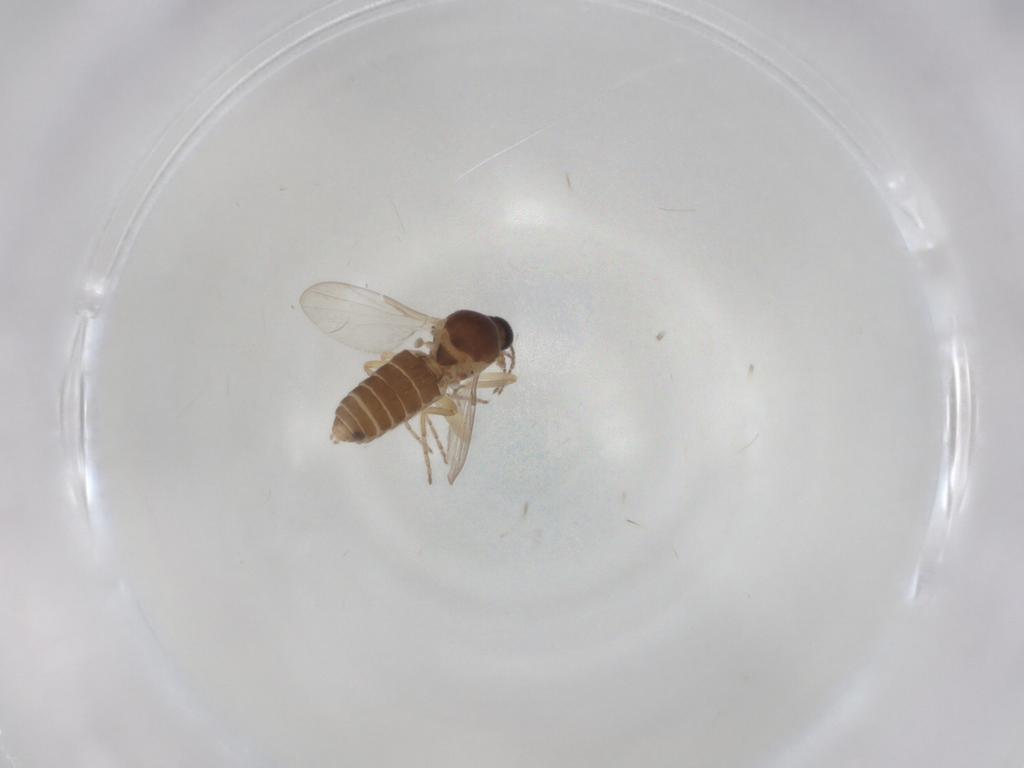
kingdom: Animalia
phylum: Arthropoda
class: Insecta
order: Diptera
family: Ceratopogonidae
